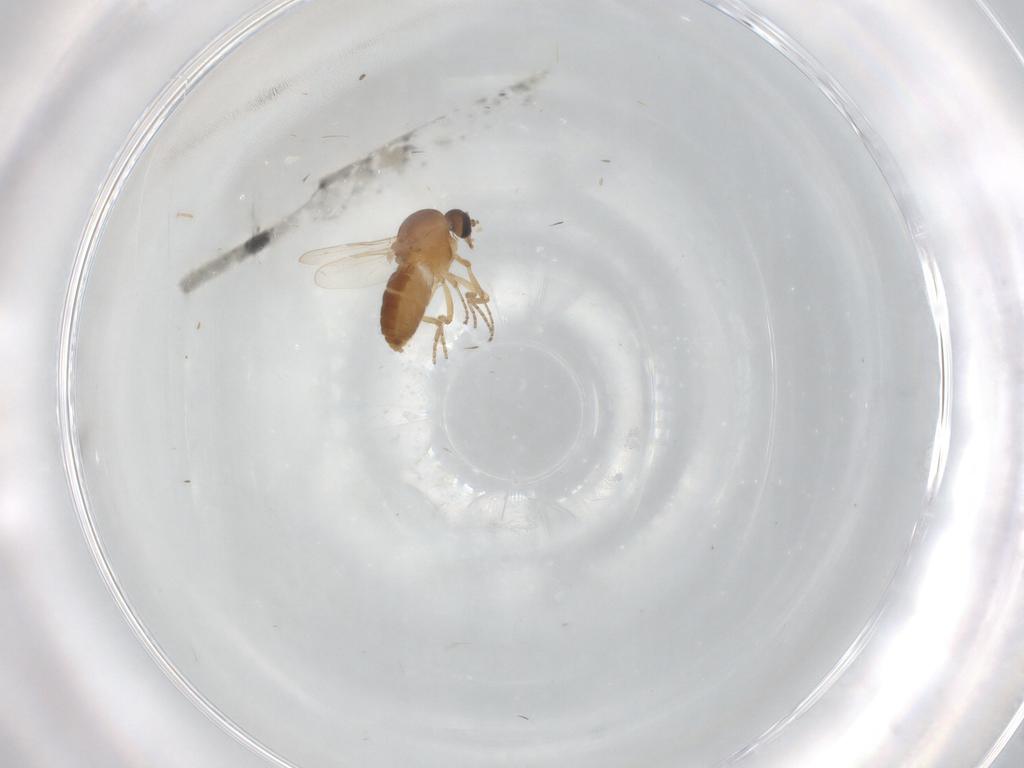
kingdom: Animalia
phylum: Arthropoda
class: Insecta
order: Diptera
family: Ceratopogonidae
